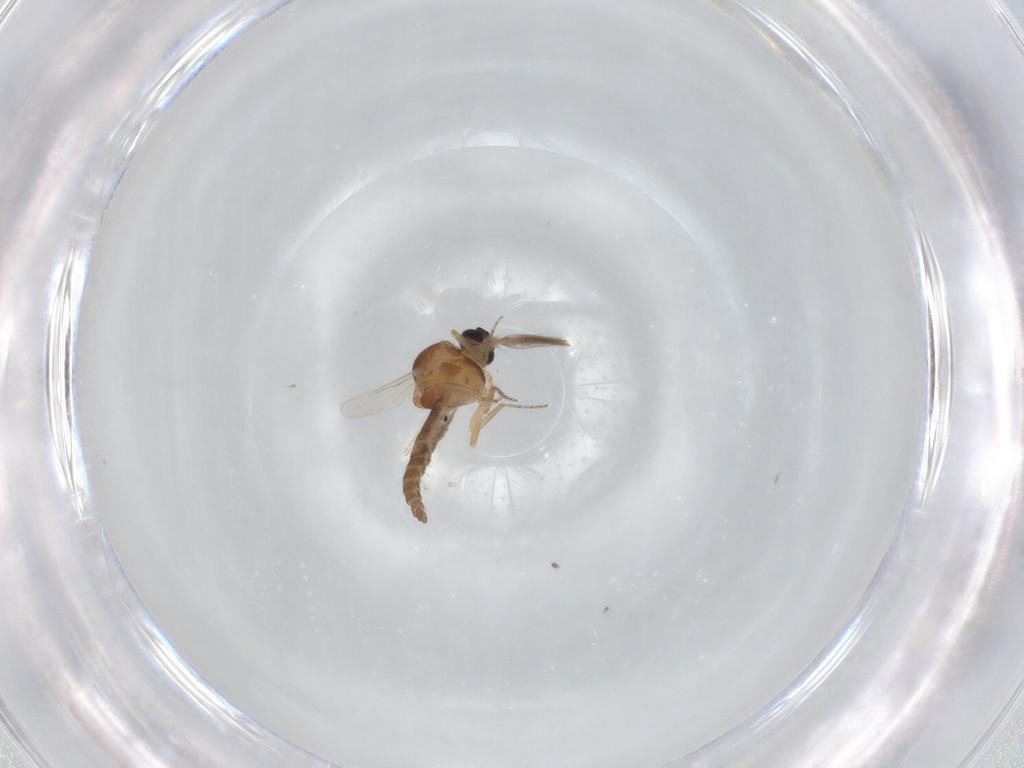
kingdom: Animalia
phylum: Arthropoda
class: Insecta
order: Diptera
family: Ceratopogonidae
